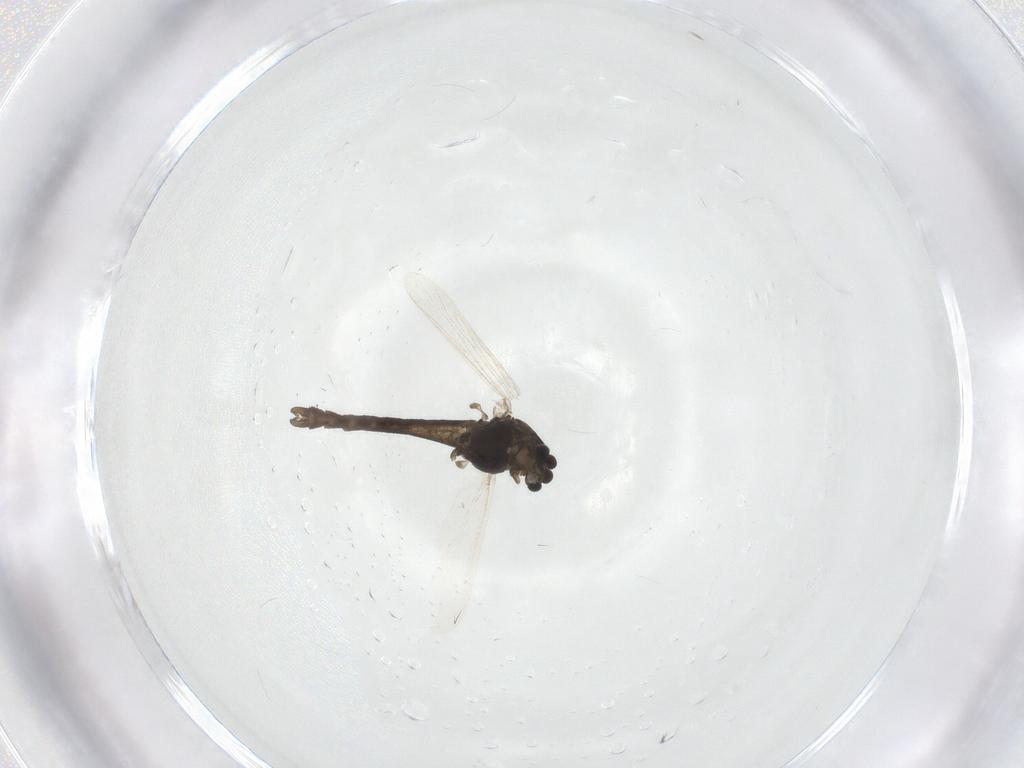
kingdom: Animalia
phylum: Arthropoda
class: Insecta
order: Diptera
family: Chironomidae
